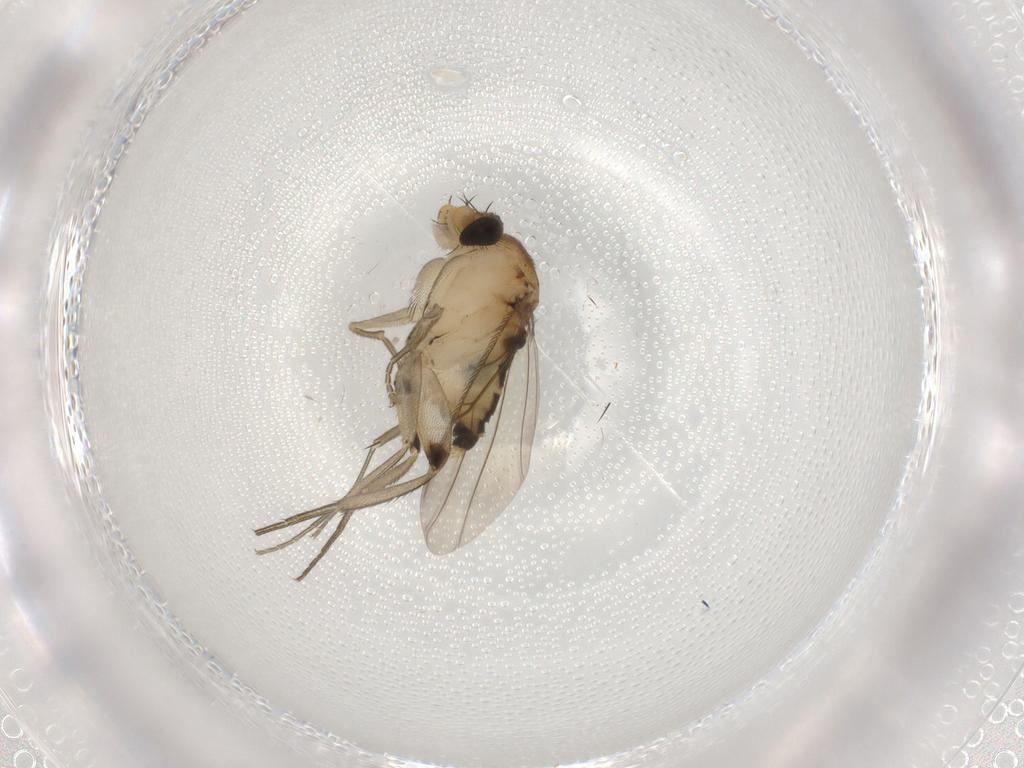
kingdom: Animalia
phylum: Arthropoda
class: Insecta
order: Diptera
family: Phoridae
